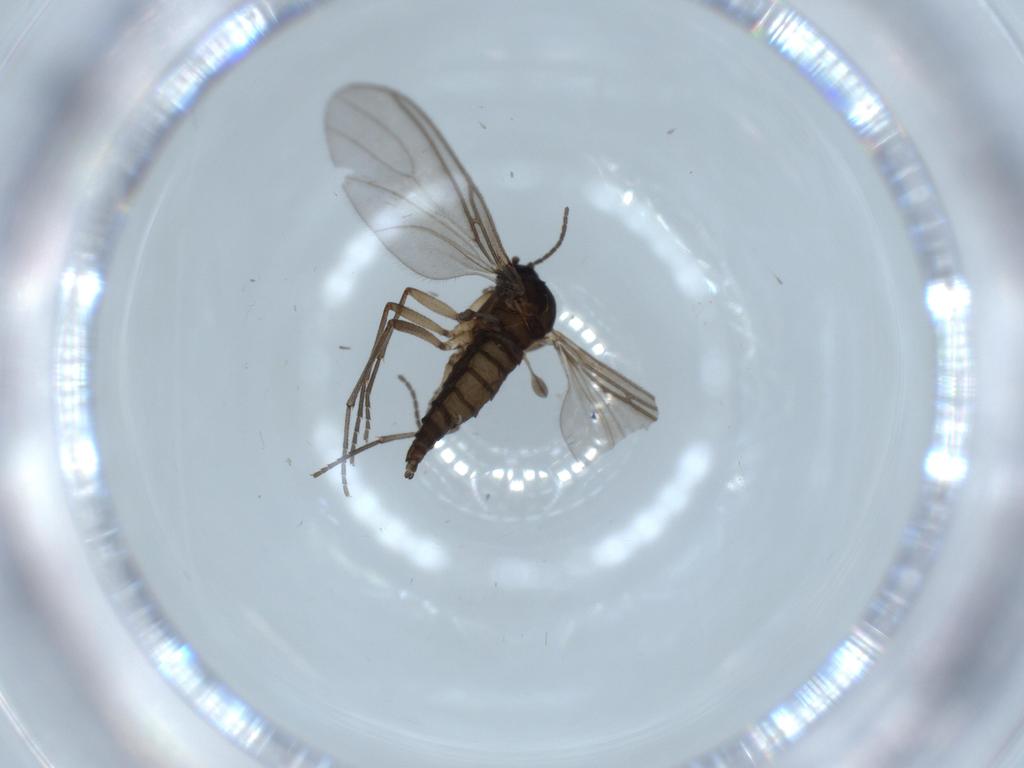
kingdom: Animalia
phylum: Arthropoda
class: Insecta
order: Diptera
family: Sciaridae
